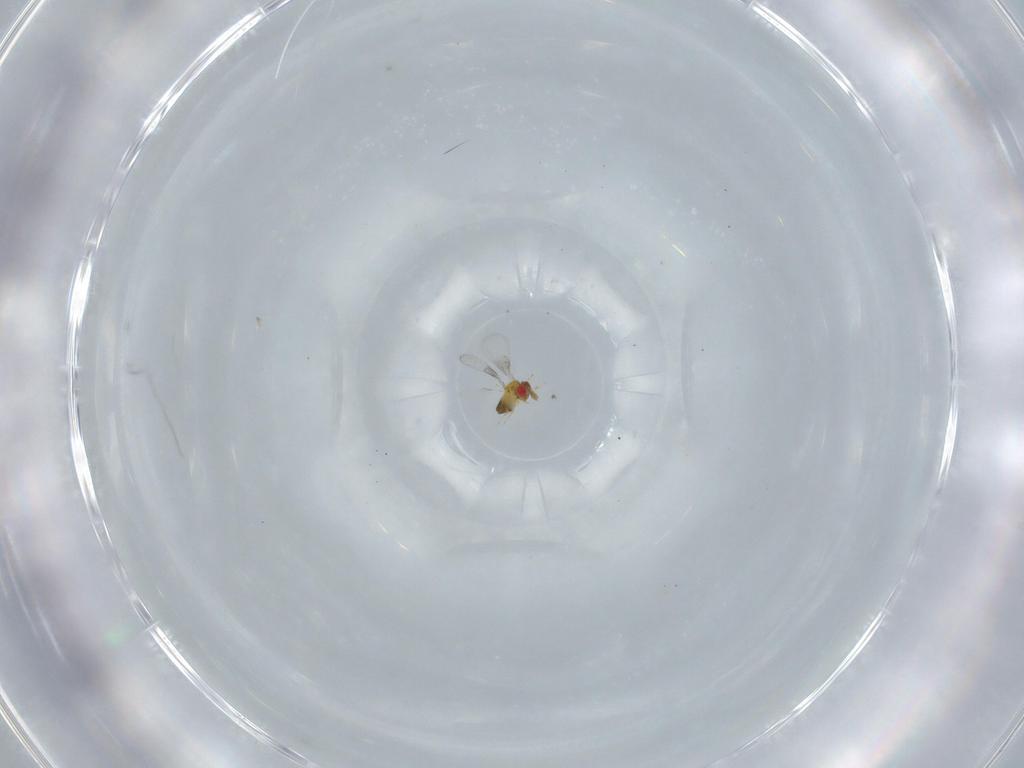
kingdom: Animalia
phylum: Arthropoda
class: Insecta
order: Hymenoptera
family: Trichogrammatidae
